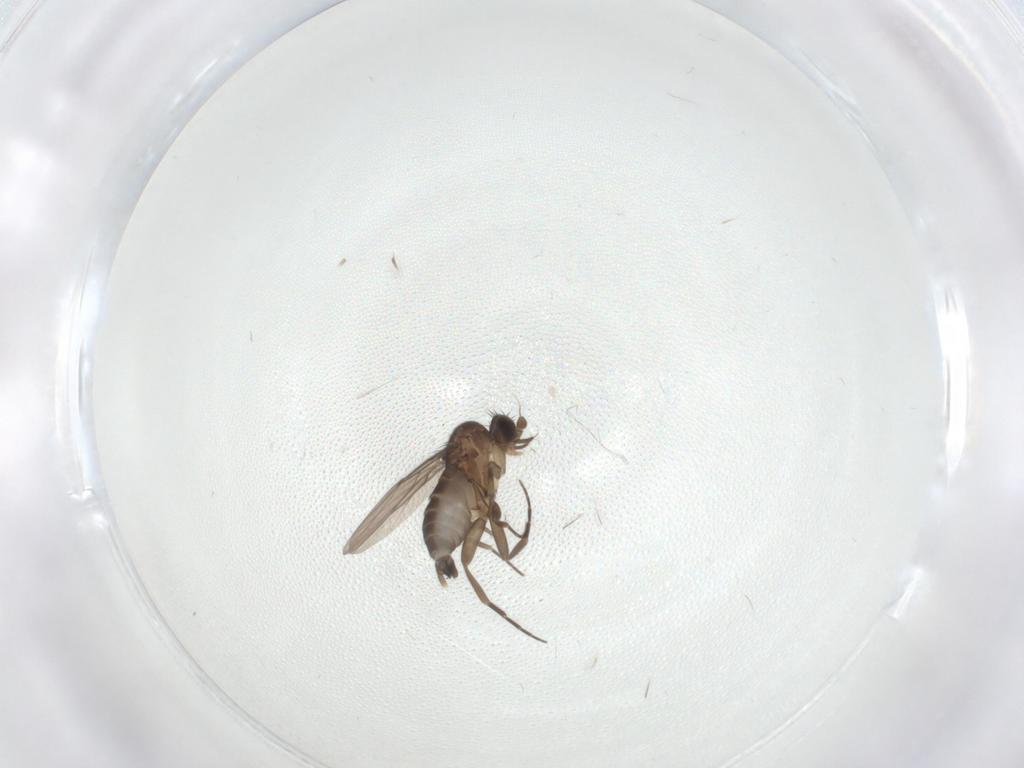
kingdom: Animalia
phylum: Arthropoda
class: Insecta
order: Diptera
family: Phoridae
